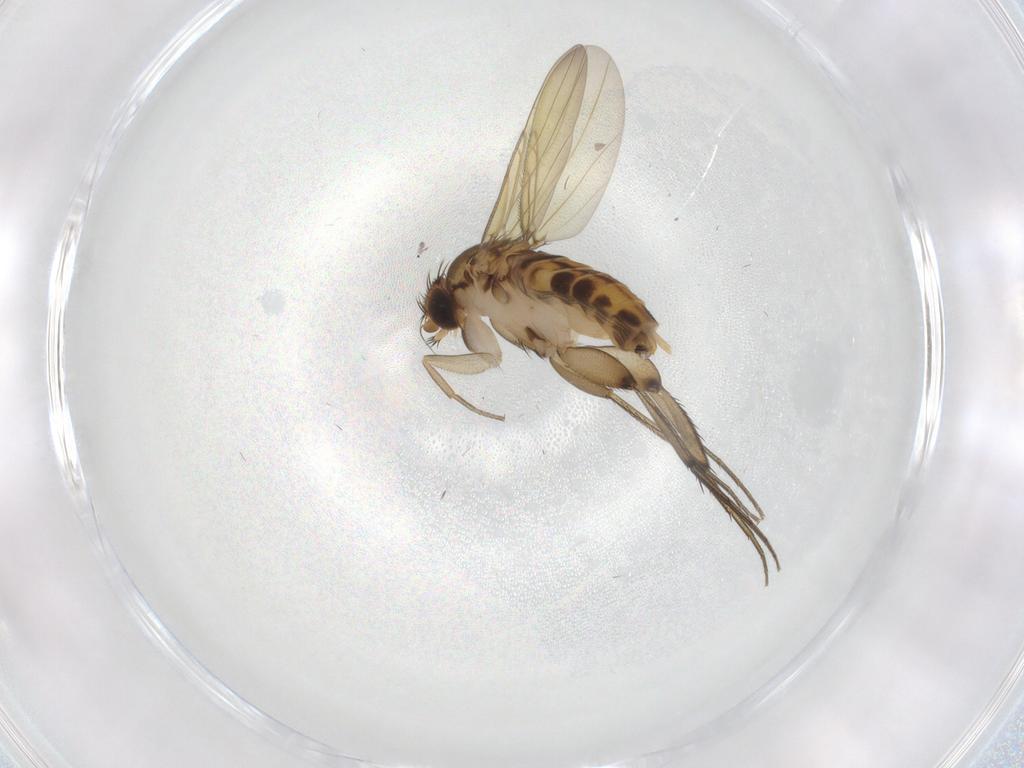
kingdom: Animalia
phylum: Arthropoda
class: Insecta
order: Diptera
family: Phoridae
